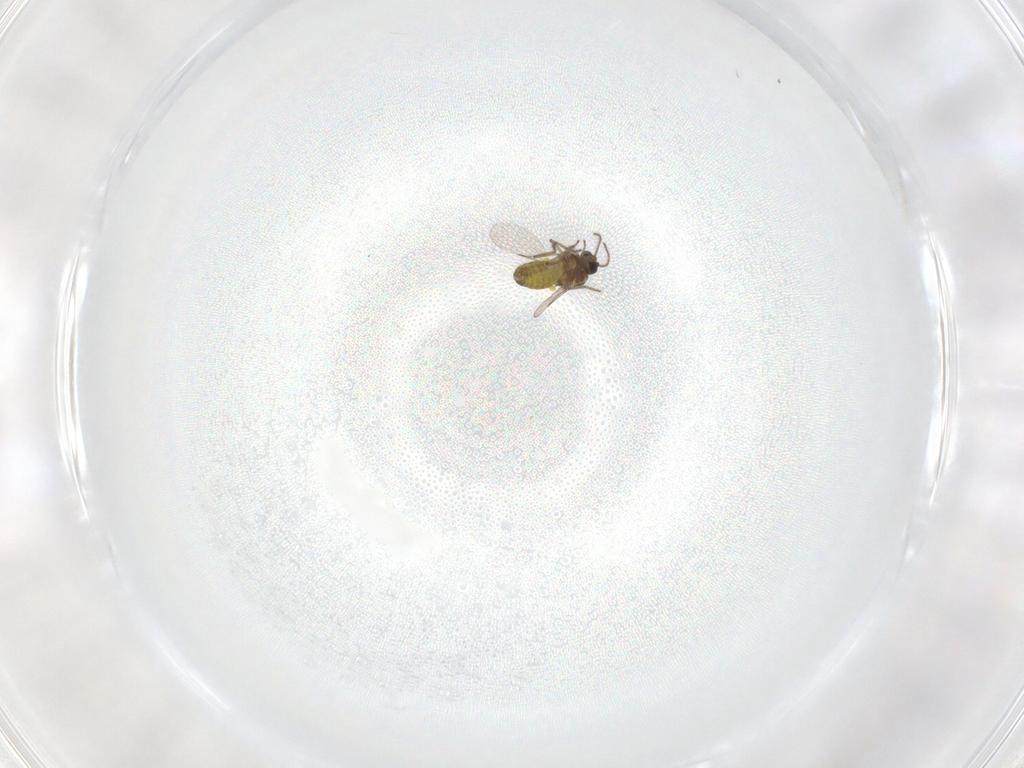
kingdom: Animalia
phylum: Arthropoda
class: Insecta
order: Diptera
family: Ceratopogonidae
